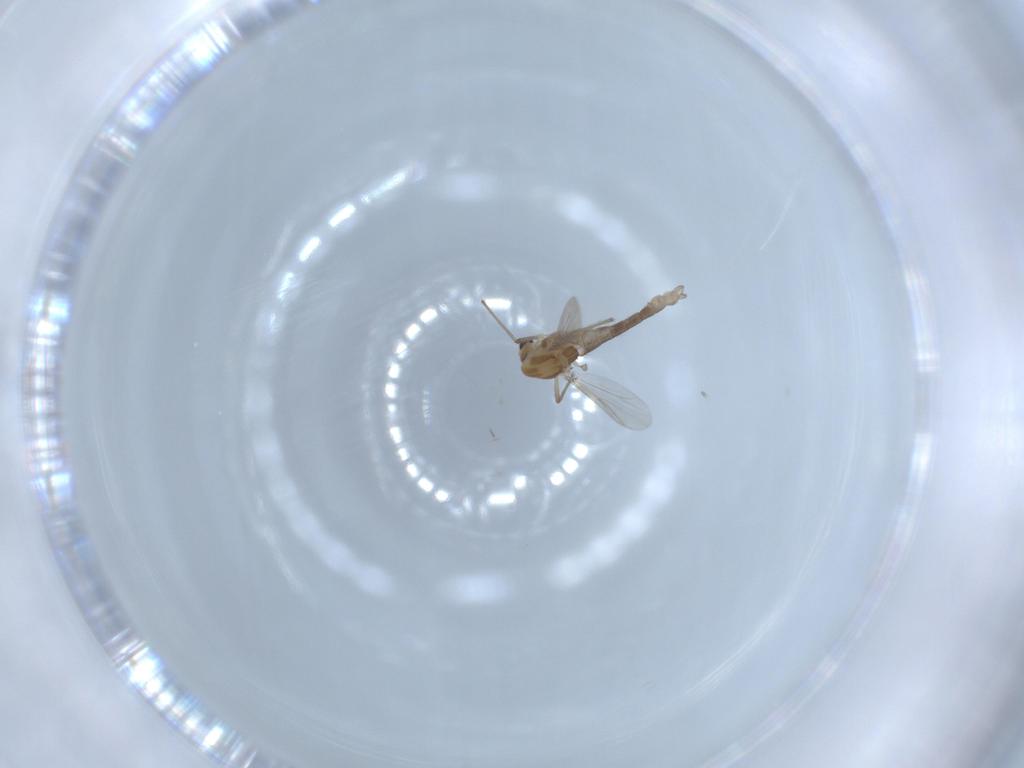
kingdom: Animalia
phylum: Arthropoda
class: Insecta
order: Diptera
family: Chironomidae
